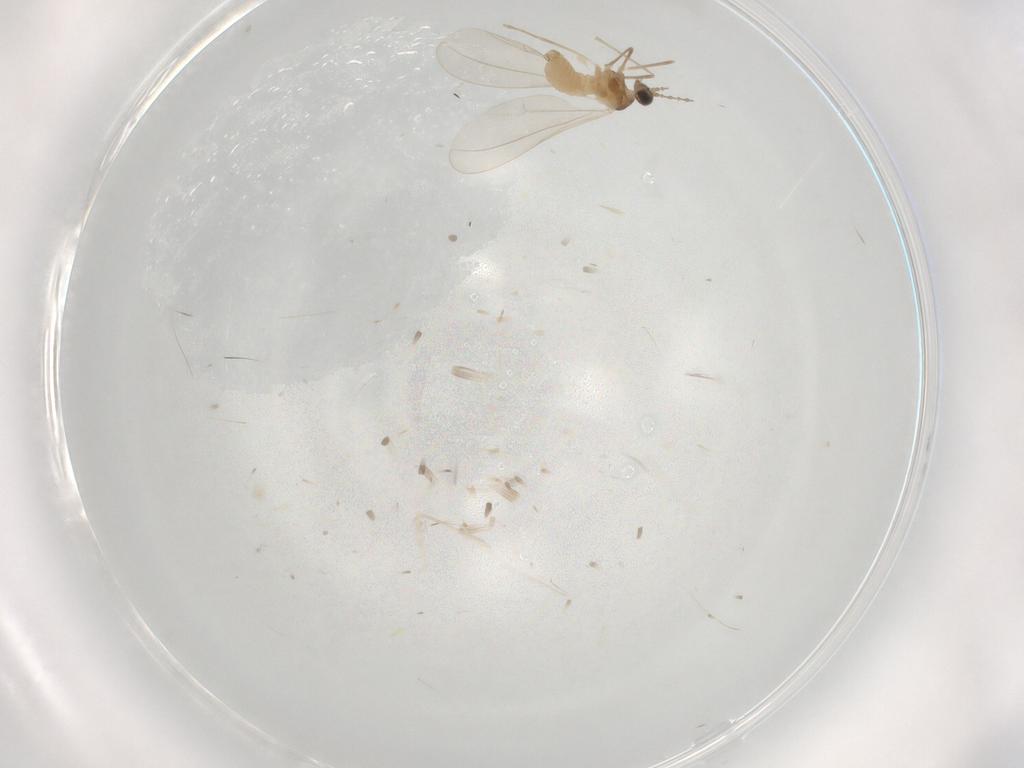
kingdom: Animalia
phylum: Arthropoda
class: Insecta
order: Diptera
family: Cecidomyiidae
